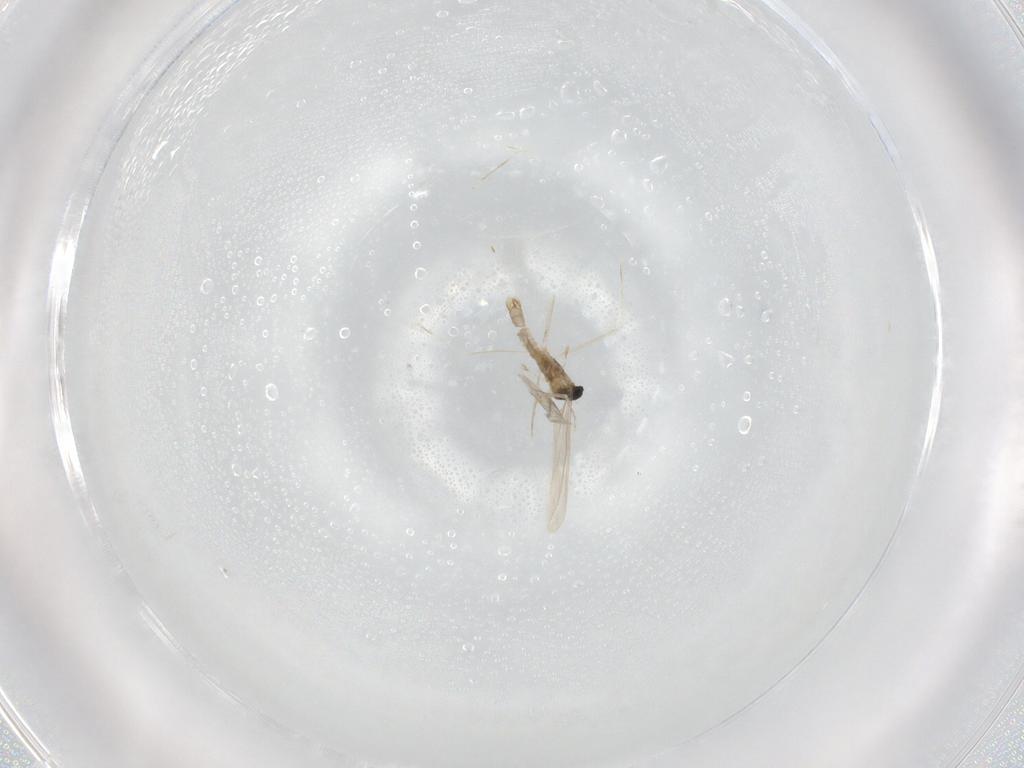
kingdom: Animalia
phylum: Arthropoda
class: Insecta
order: Diptera
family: Cecidomyiidae
